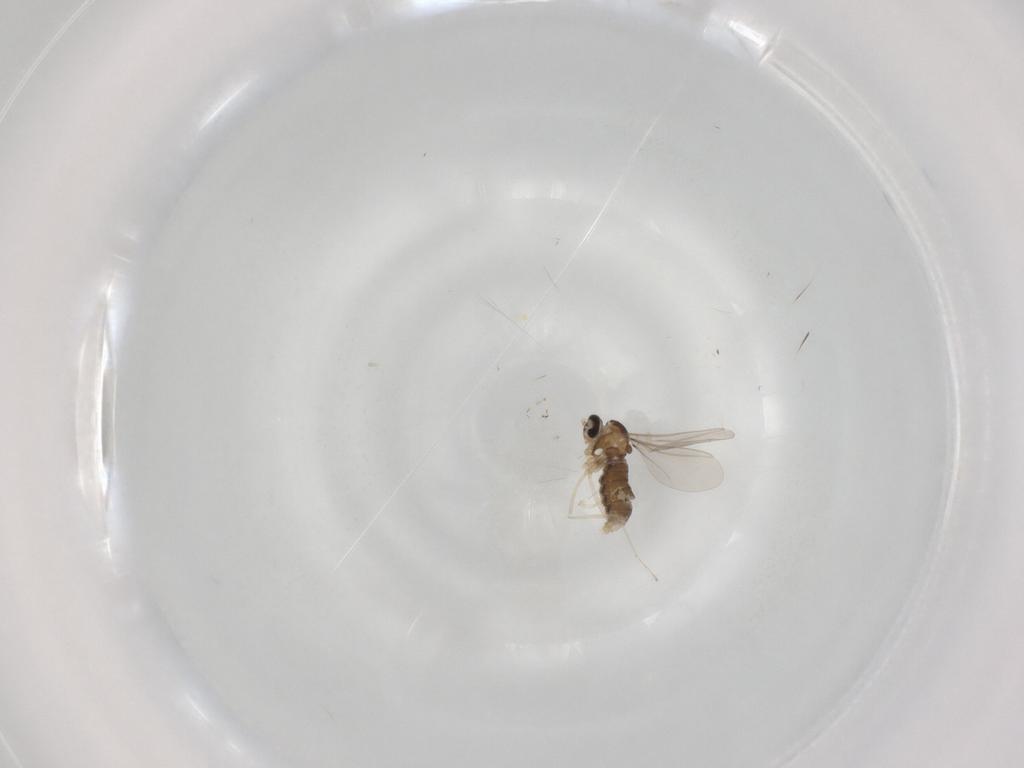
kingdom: Animalia
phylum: Arthropoda
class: Insecta
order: Diptera
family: Cecidomyiidae
